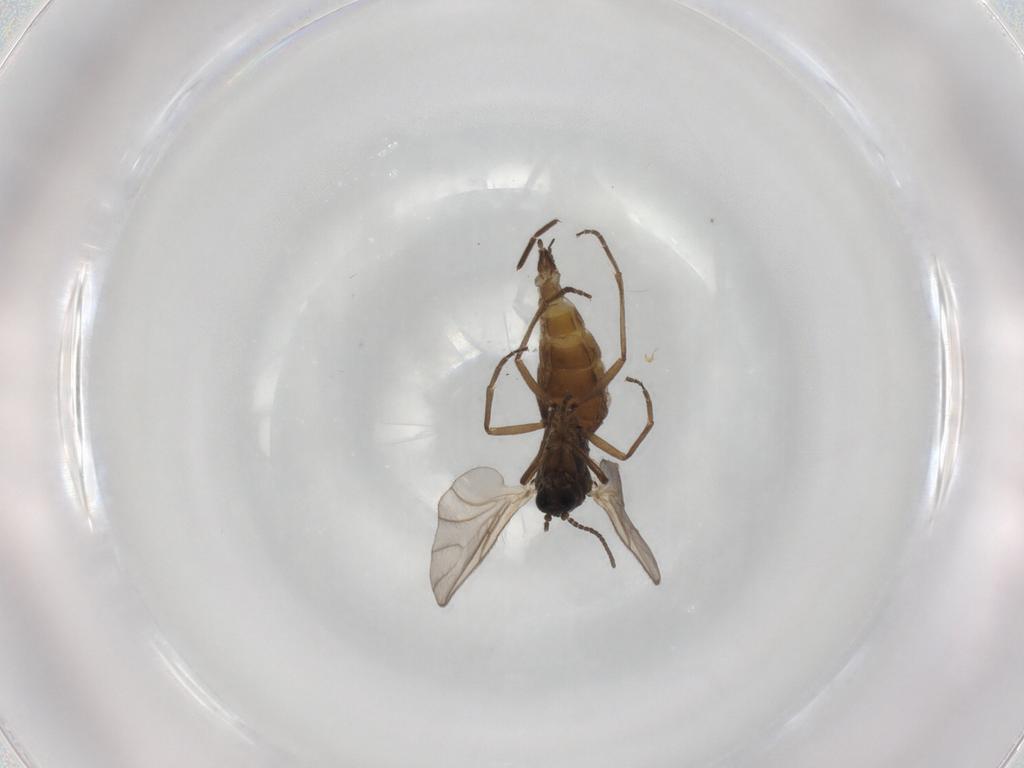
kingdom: Animalia
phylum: Arthropoda
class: Insecta
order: Diptera
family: Sciaridae
